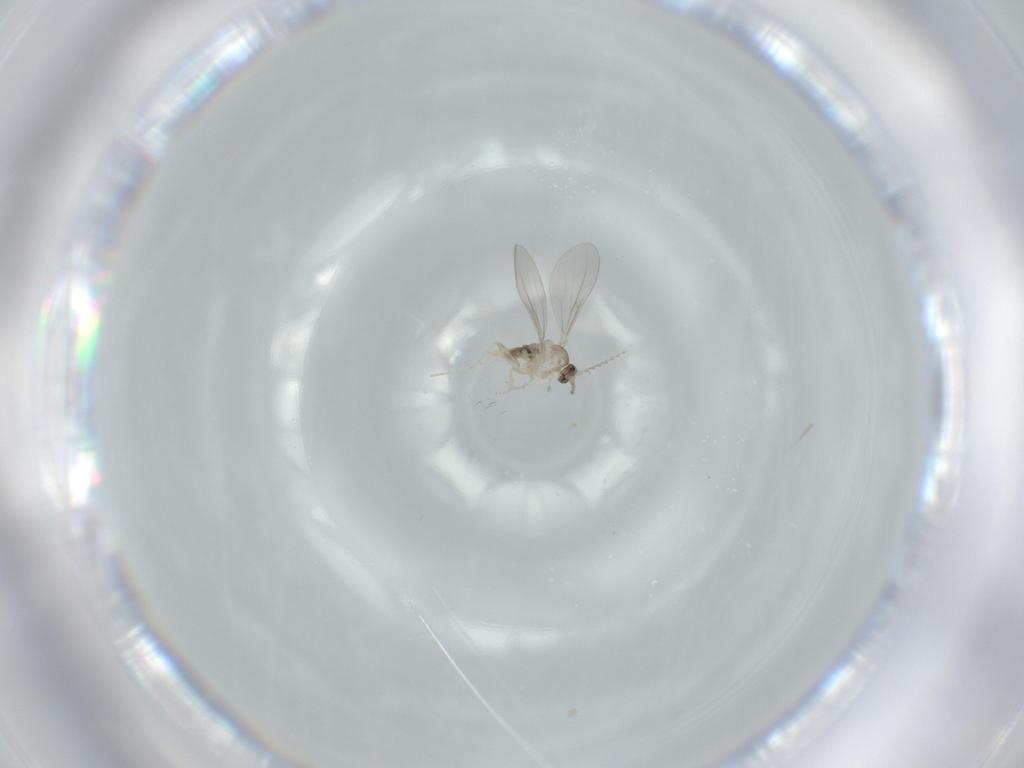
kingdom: Animalia
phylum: Arthropoda
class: Insecta
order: Diptera
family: Cecidomyiidae
